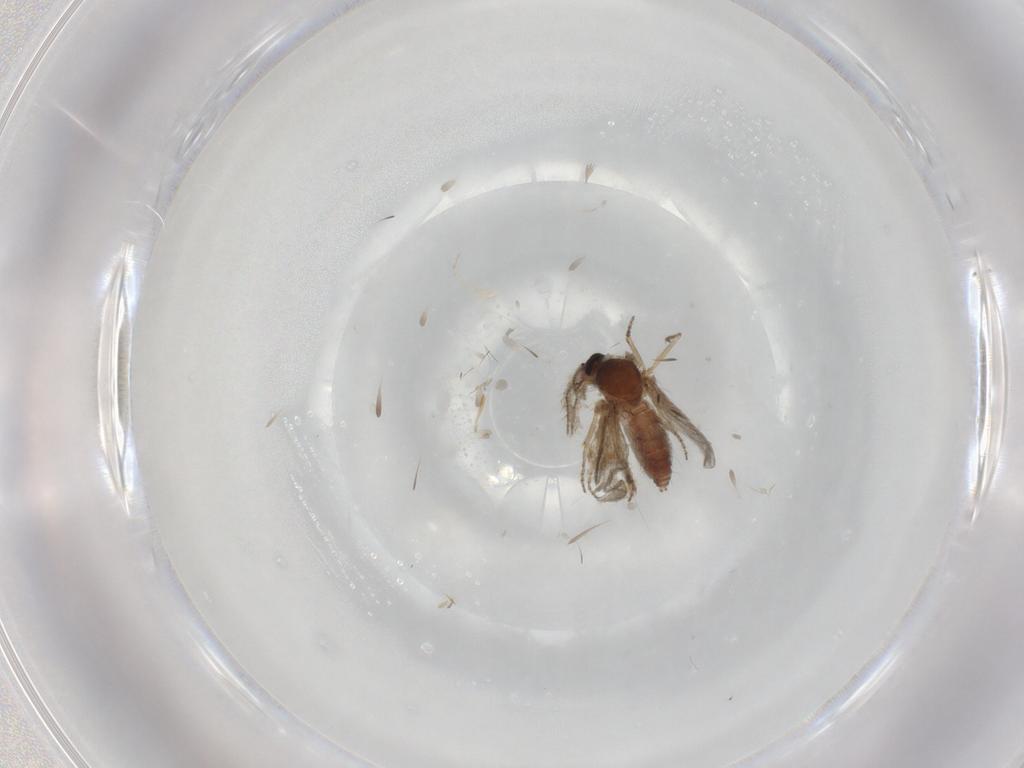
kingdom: Animalia
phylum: Arthropoda
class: Insecta
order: Diptera
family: Ceratopogonidae
